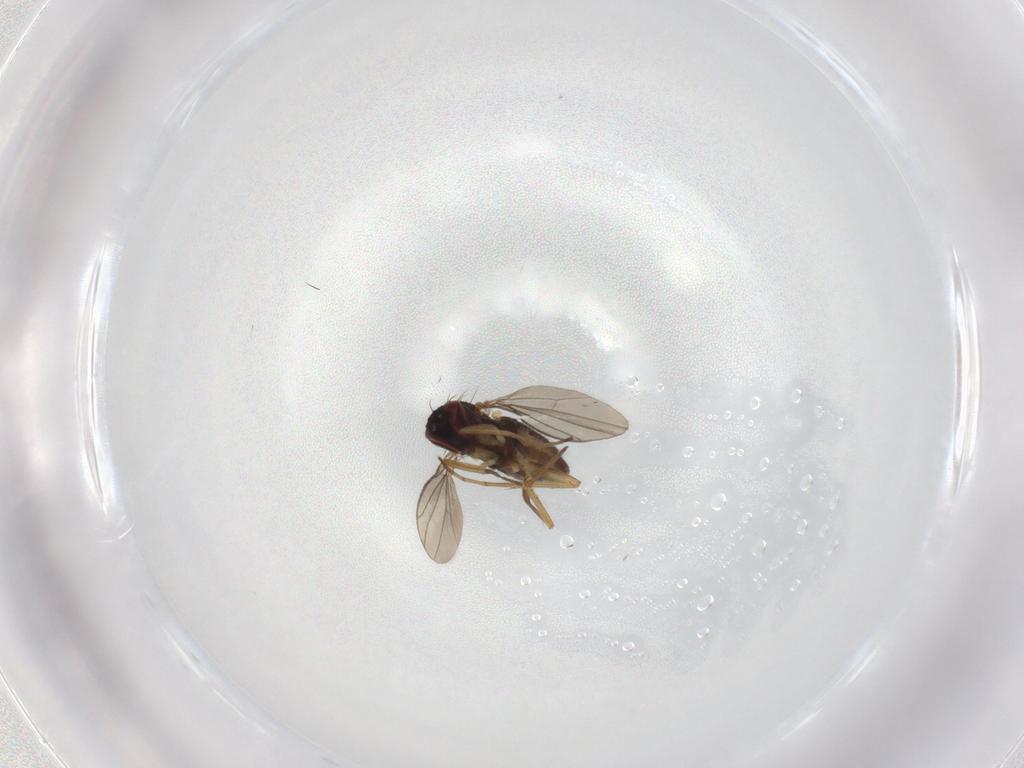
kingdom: Animalia
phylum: Arthropoda
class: Insecta
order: Diptera
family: Dolichopodidae
